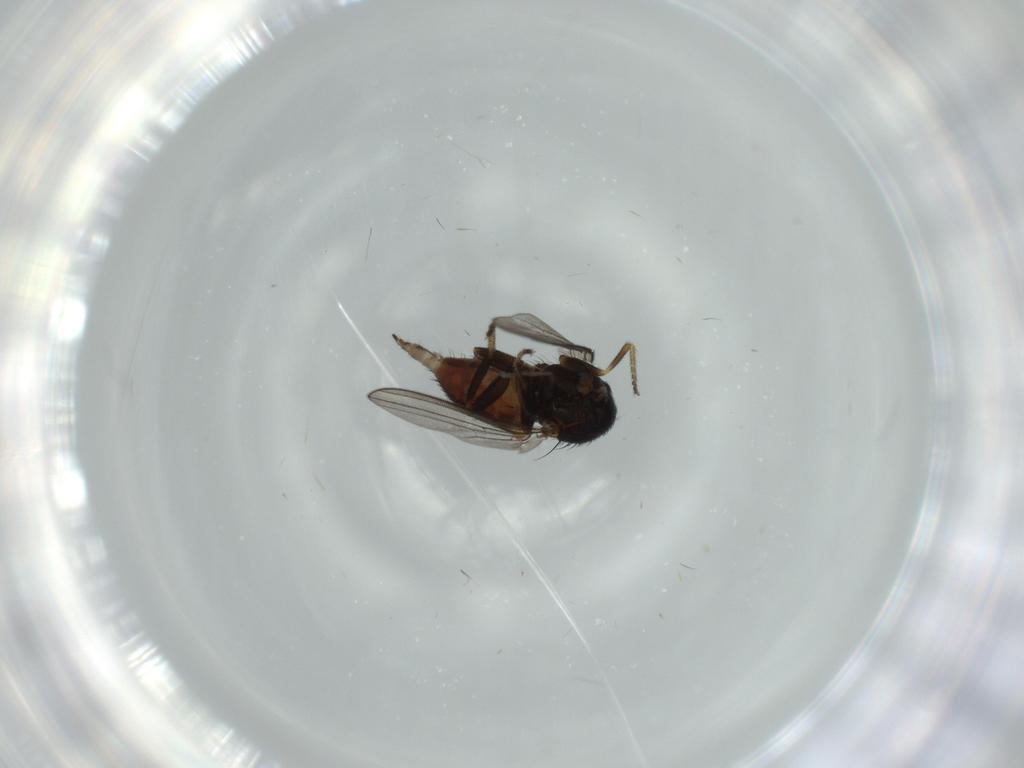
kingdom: Animalia
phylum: Arthropoda
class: Insecta
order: Diptera
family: Milichiidae
